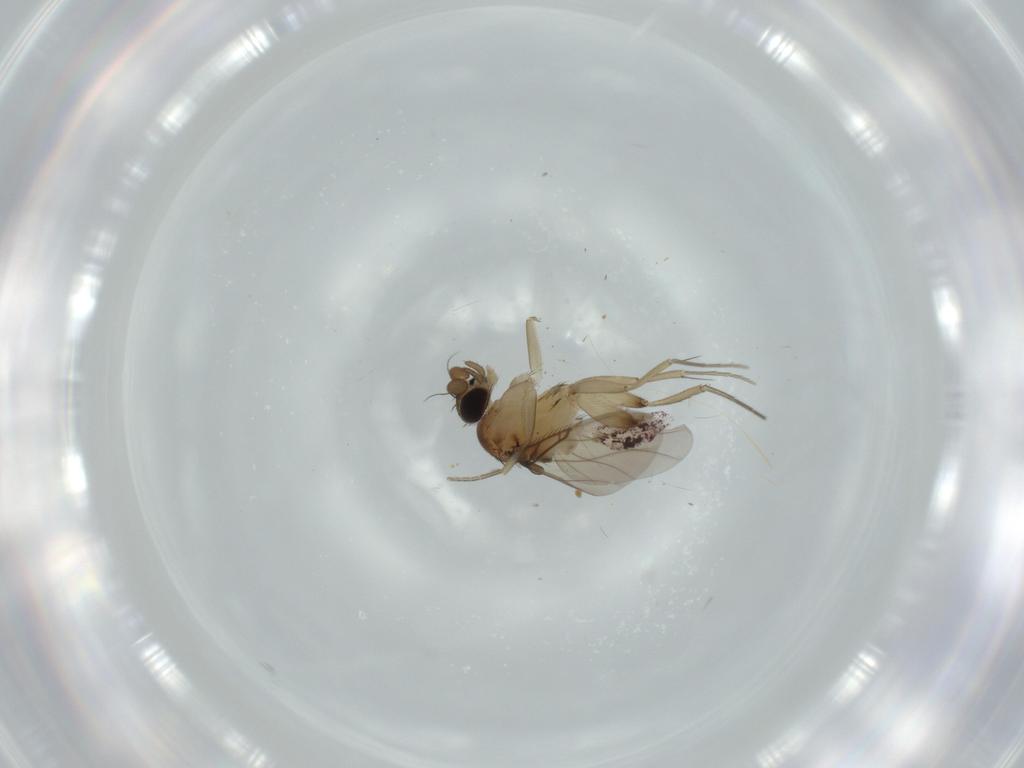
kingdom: Animalia
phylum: Arthropoda
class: Insecta
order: Diptera
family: Phoridae
